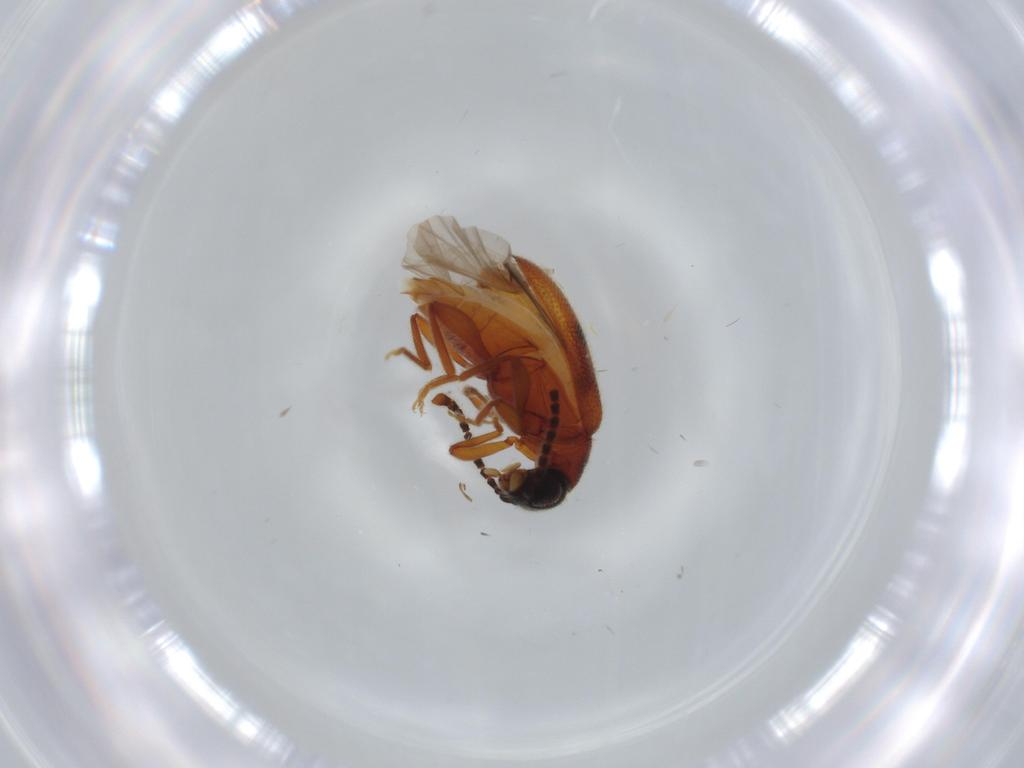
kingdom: Animalia
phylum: Arthropoda
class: Insecta
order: Coleoptera
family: Aderidae
